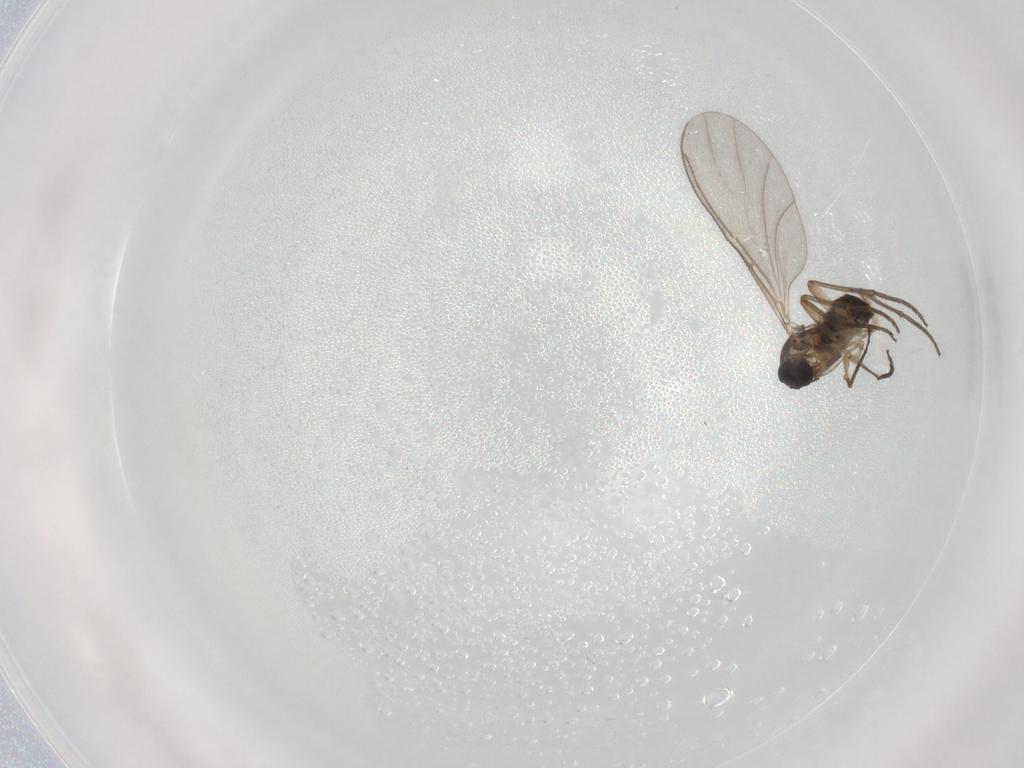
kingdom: Animalia
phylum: Arthropoda
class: Insecta
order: Diptera
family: Sciaridae
